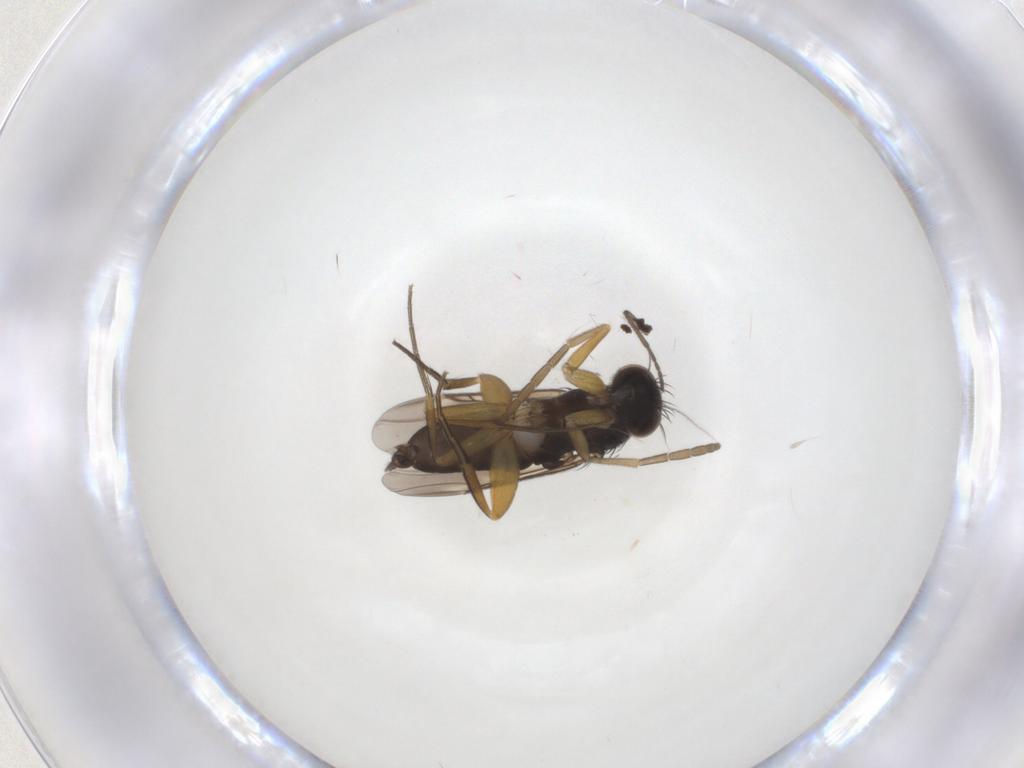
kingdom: Animalia
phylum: Arthropoda
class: Insecta
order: Diptera
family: Sciaridae
